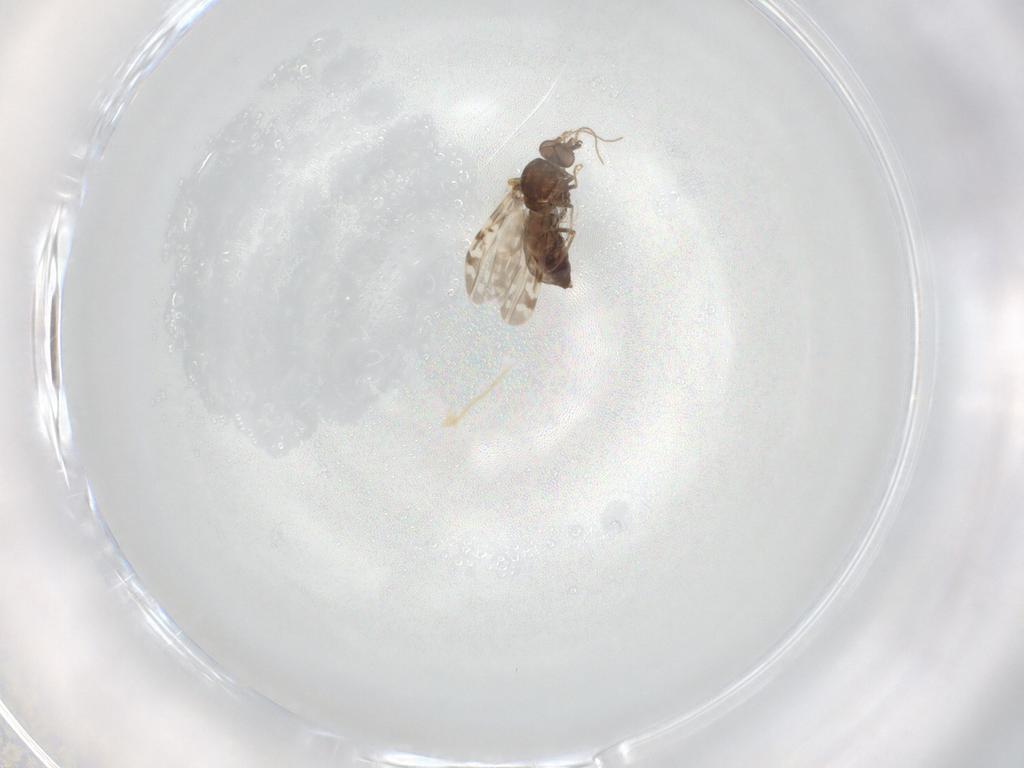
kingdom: Animalia
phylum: Arthropoda
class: Insecta
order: Diptera
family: Ceratopogonidae
